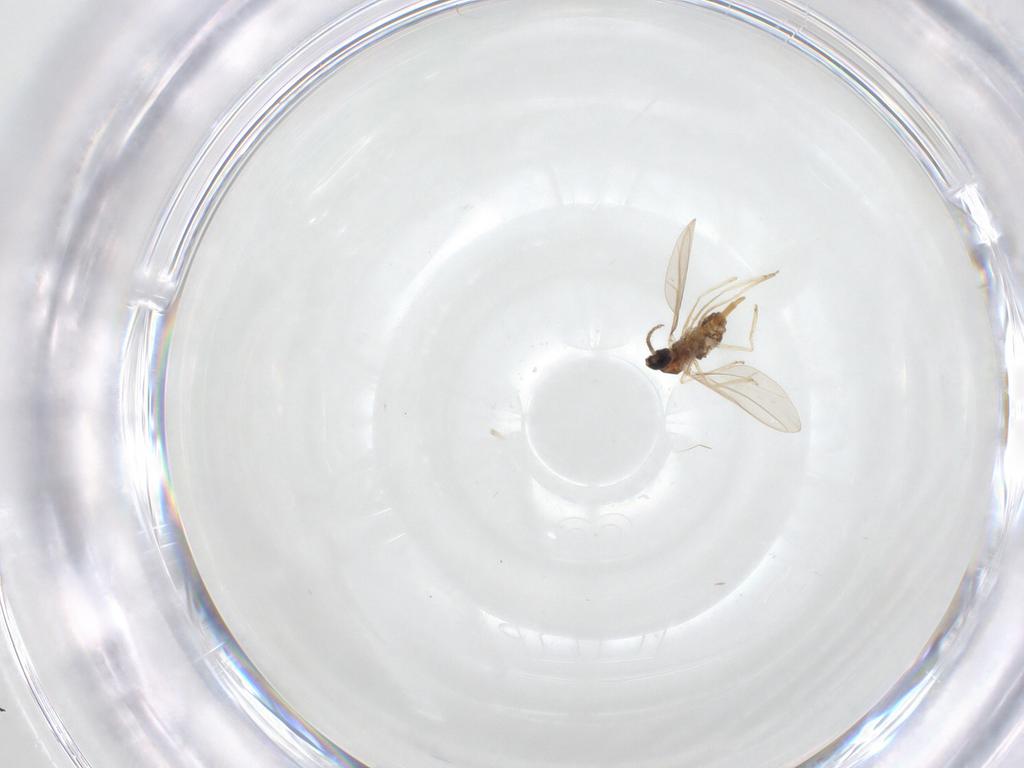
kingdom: Animalia
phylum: Arthropoda
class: Insecta
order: Diptera
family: Cecidomyiidae
